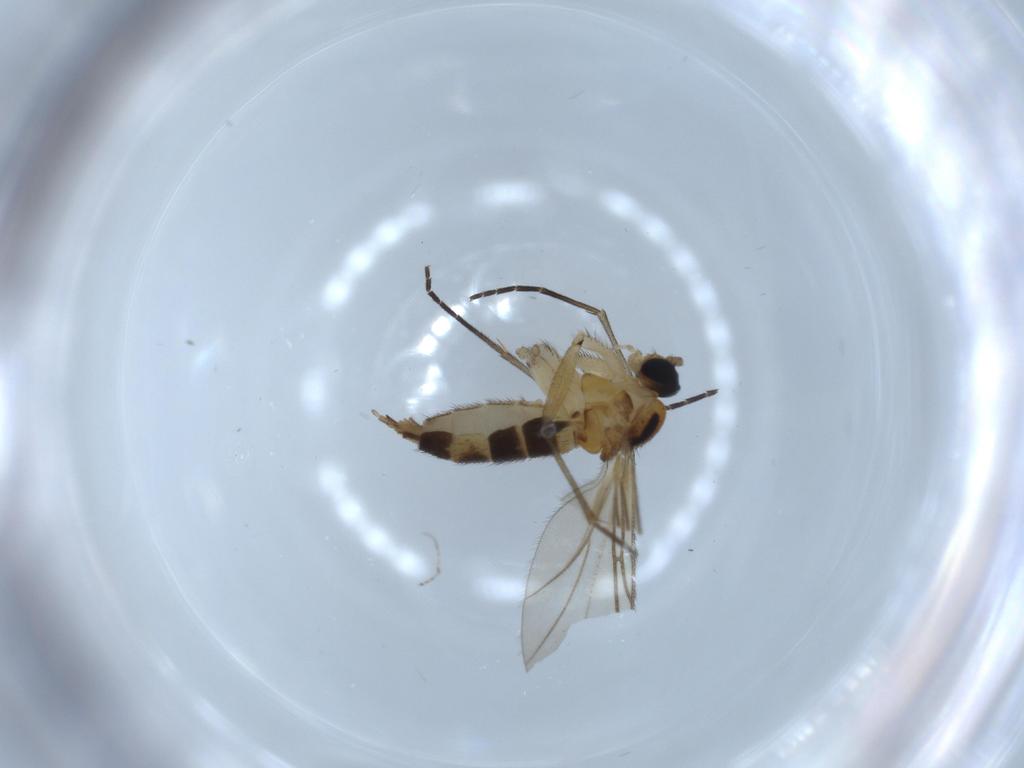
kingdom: Animalia
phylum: Arthropoda
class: Insecta
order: Diptera
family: Sciaridae
